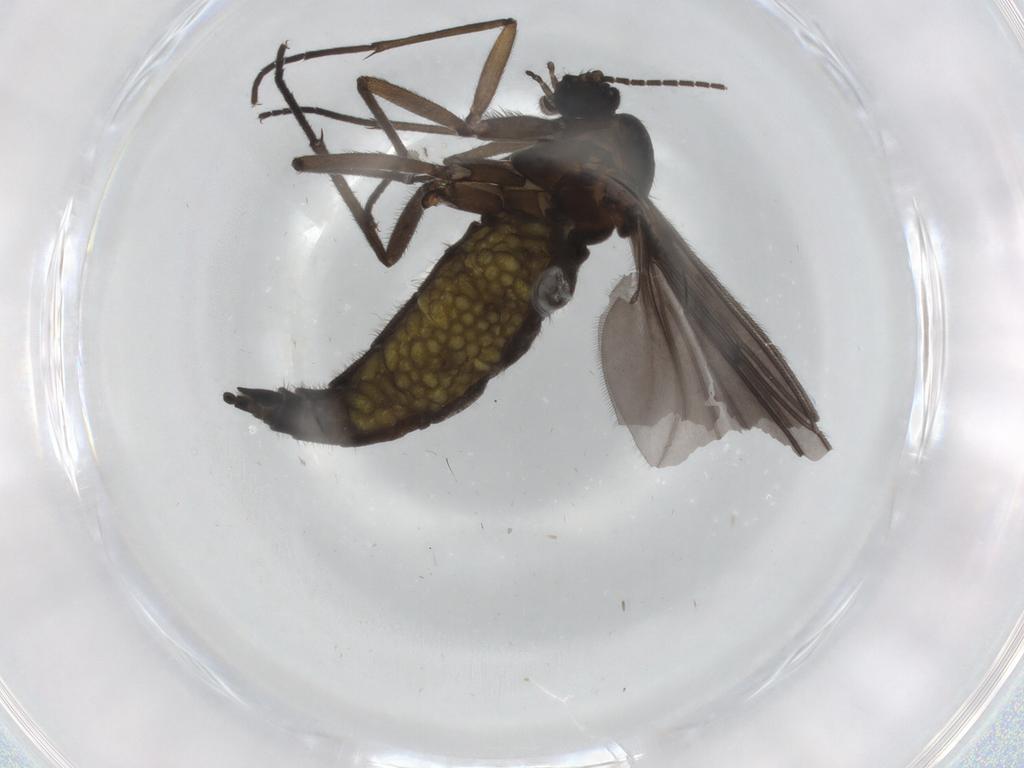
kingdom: Animalia
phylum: Arthropoda
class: Insecta
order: Diptera
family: Sciaridae
